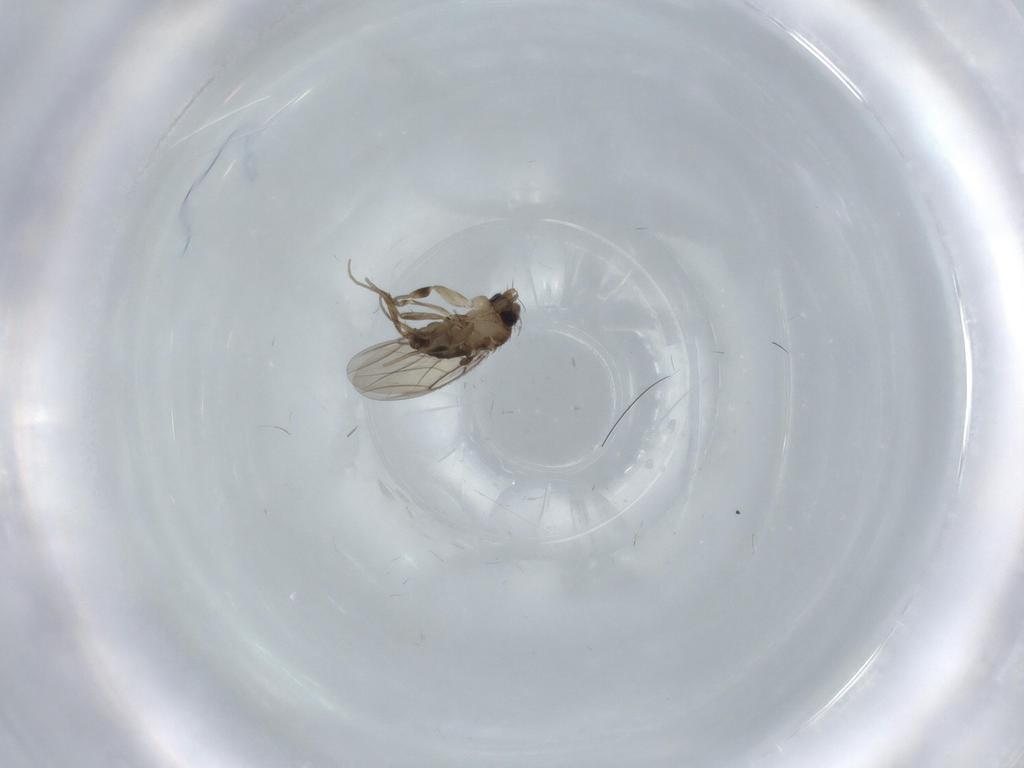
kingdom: Animalia
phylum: Arthropoda
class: Insecta
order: Diptera
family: Phoridae
